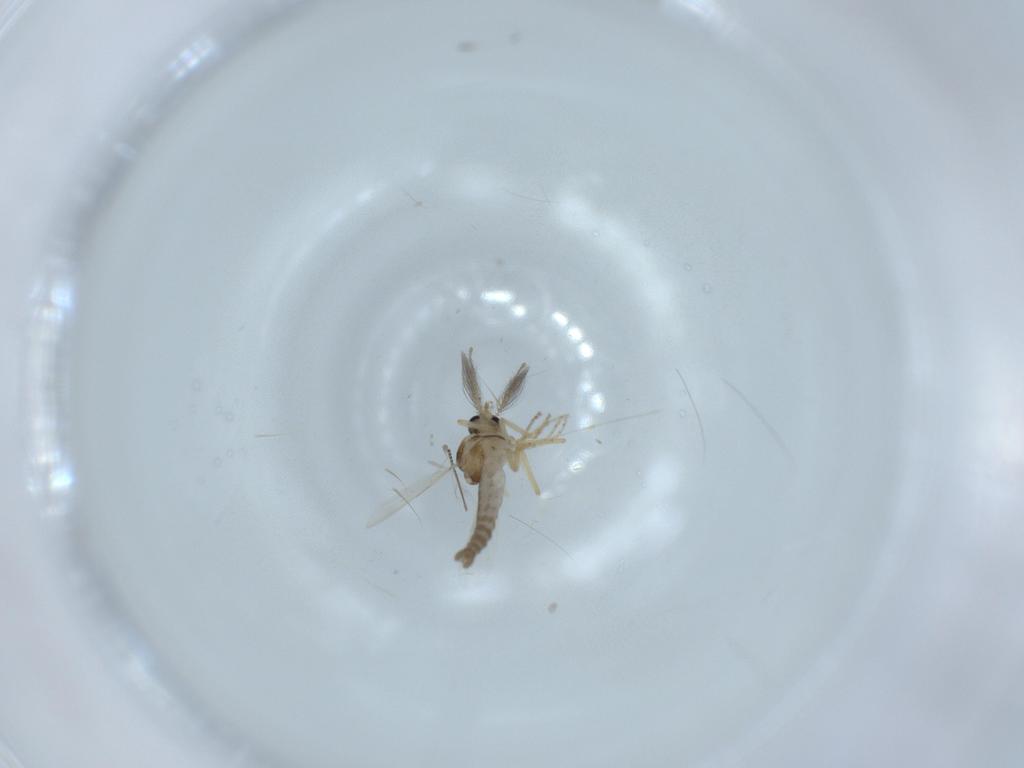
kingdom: Animalia
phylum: Arthropoda
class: Insecta
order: Diptera
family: Ceratopogonidae
